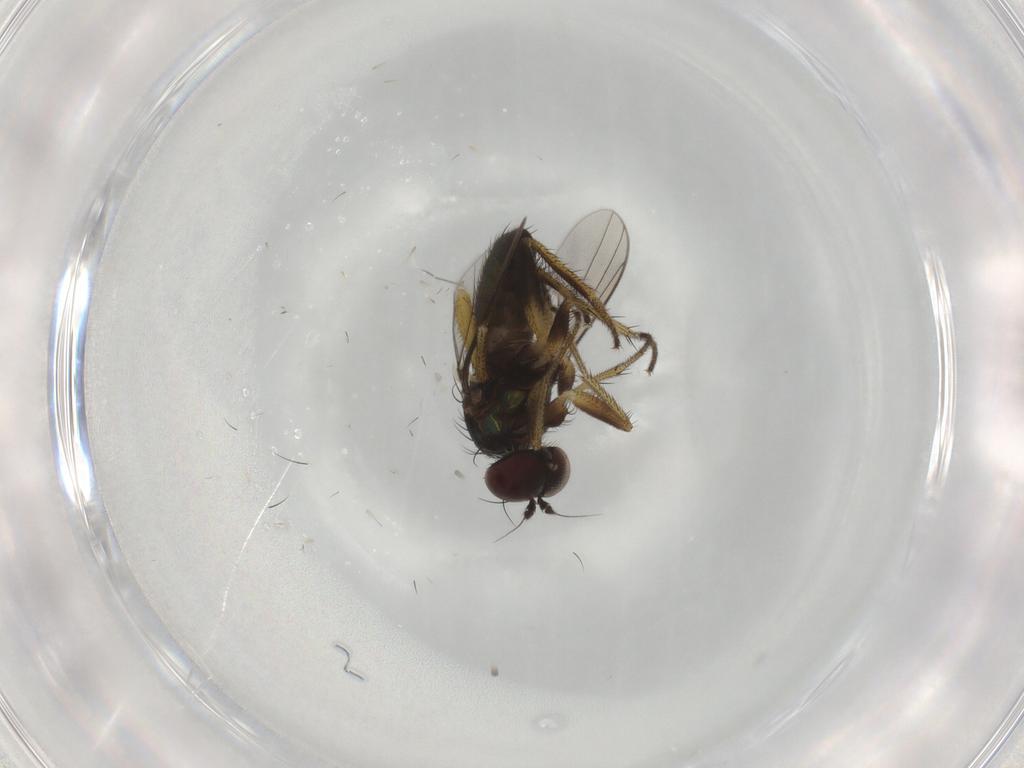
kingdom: Animalia
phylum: Arthropoda
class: Insecta
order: Diptera
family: Dolichopodidae
